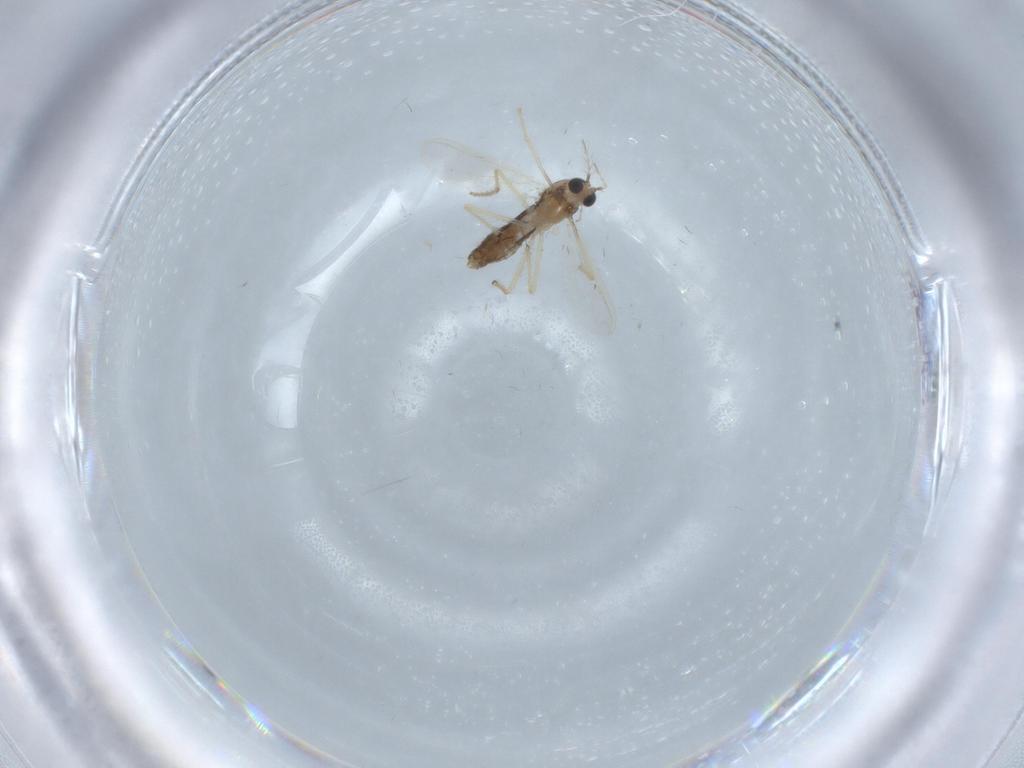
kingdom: Animalia
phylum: Arthropoda
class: Insecta
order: Diptera
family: Chironomidae
